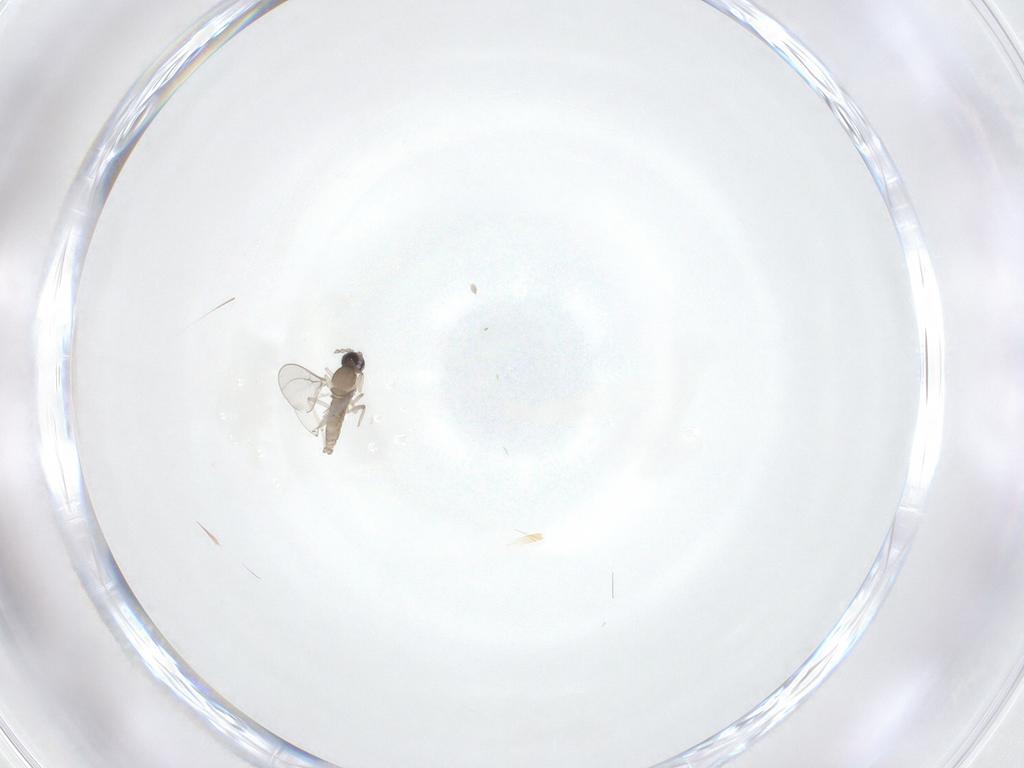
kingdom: Animalia
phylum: Arthropoda
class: Insecta
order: Diptera
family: Cecidomyiidae
